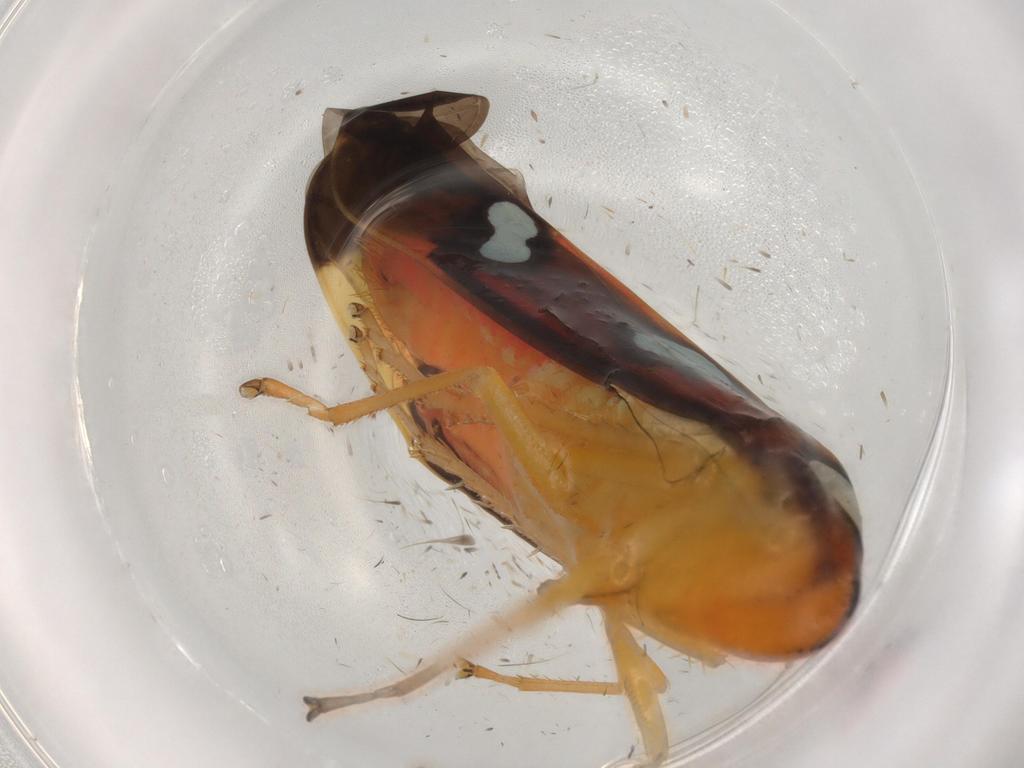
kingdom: Animalia
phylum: Arthropoda
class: Insecta
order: Hemiptera
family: Cicadellidae
